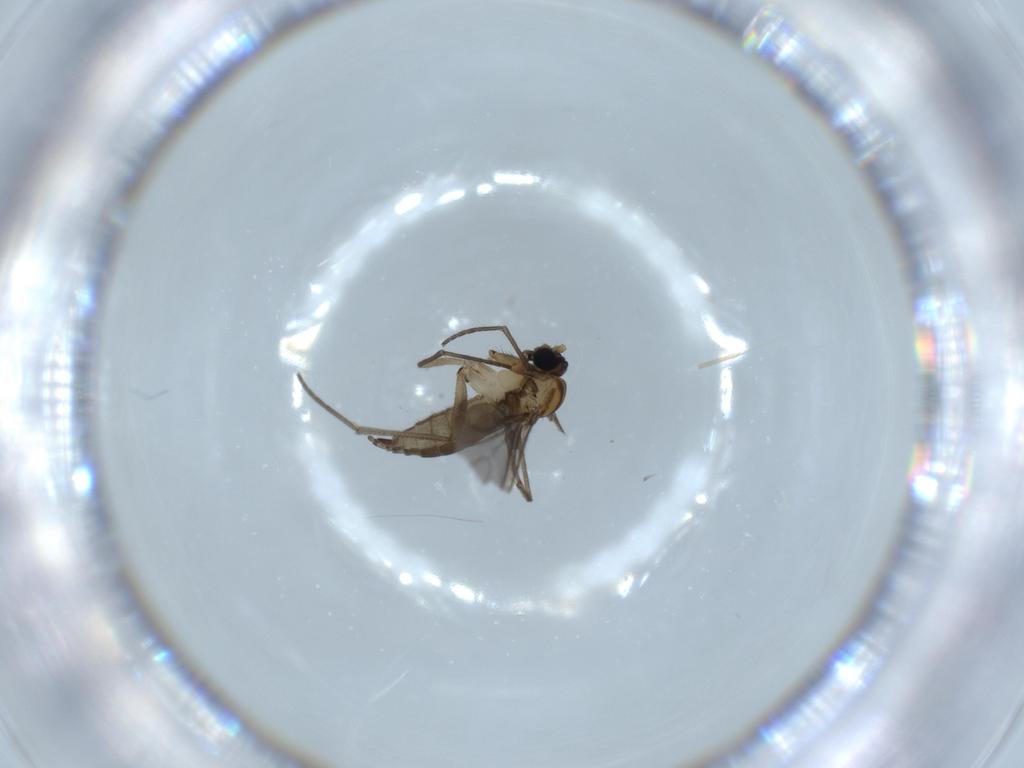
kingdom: Animalia
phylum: Arthropoda
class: Insecta
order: Diptera
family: Sciaridae
